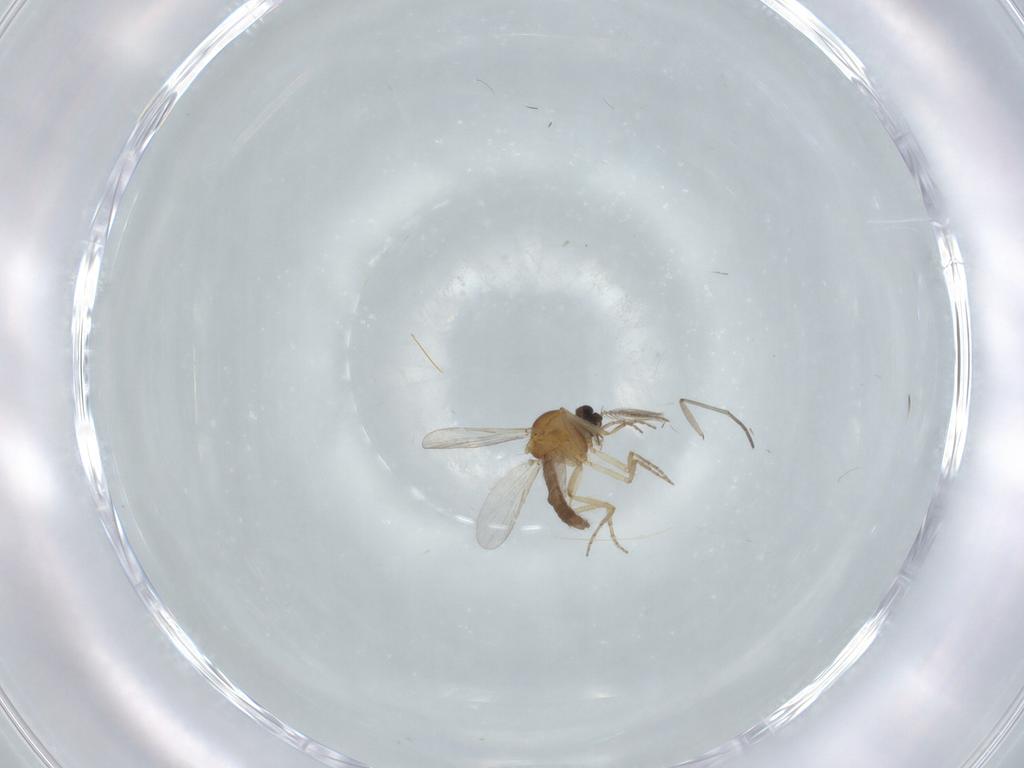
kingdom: Animalia
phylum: Arthropoda
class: Insecta
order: Diptera
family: Ceratopogonidae
